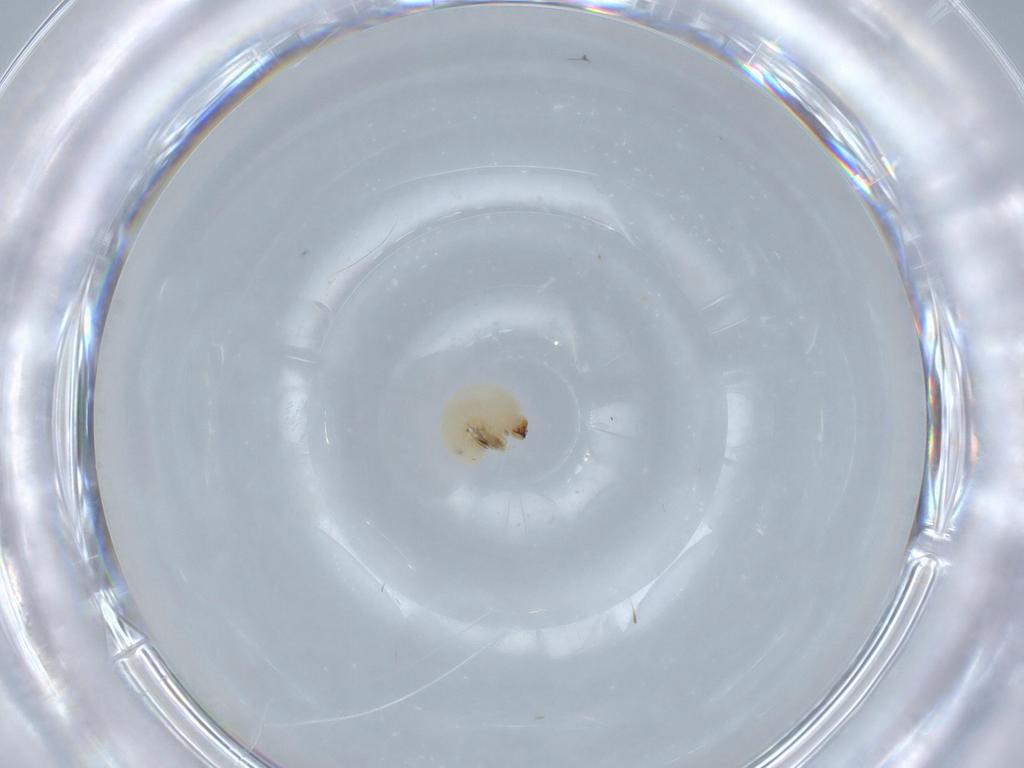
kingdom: Animalia
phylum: Arthropoda
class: Insecta
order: Coleoptera
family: Bostrichidae
